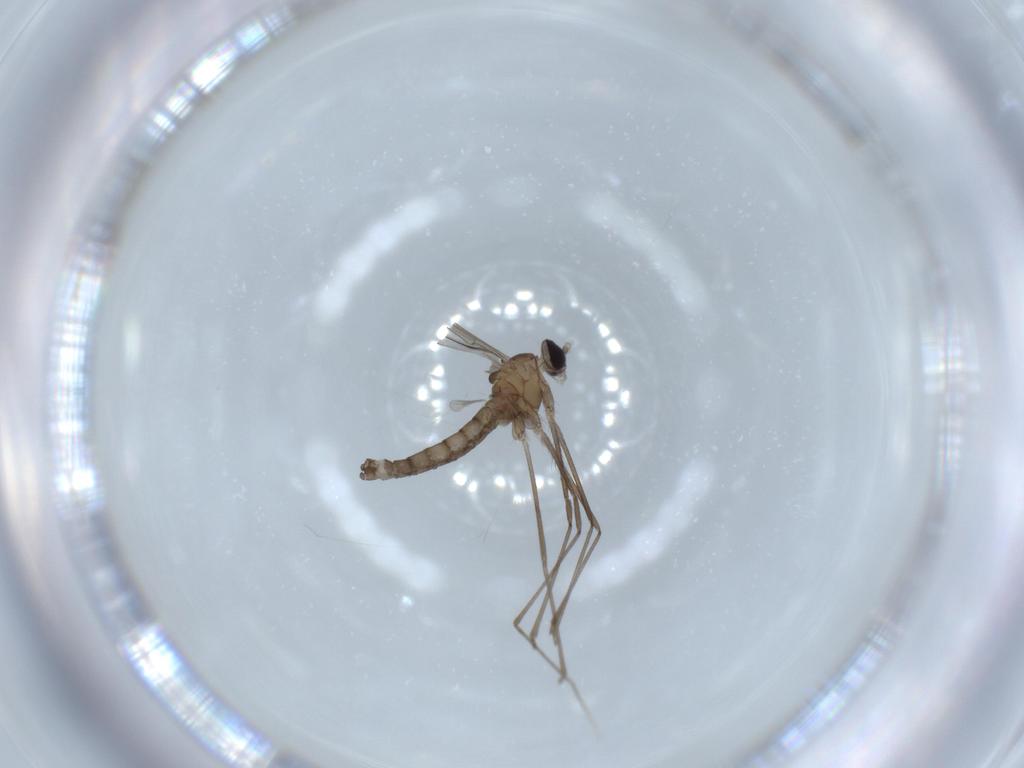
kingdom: Animalia
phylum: Arthropoda
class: Insecta
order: Diptera
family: Cecidomyiidae
